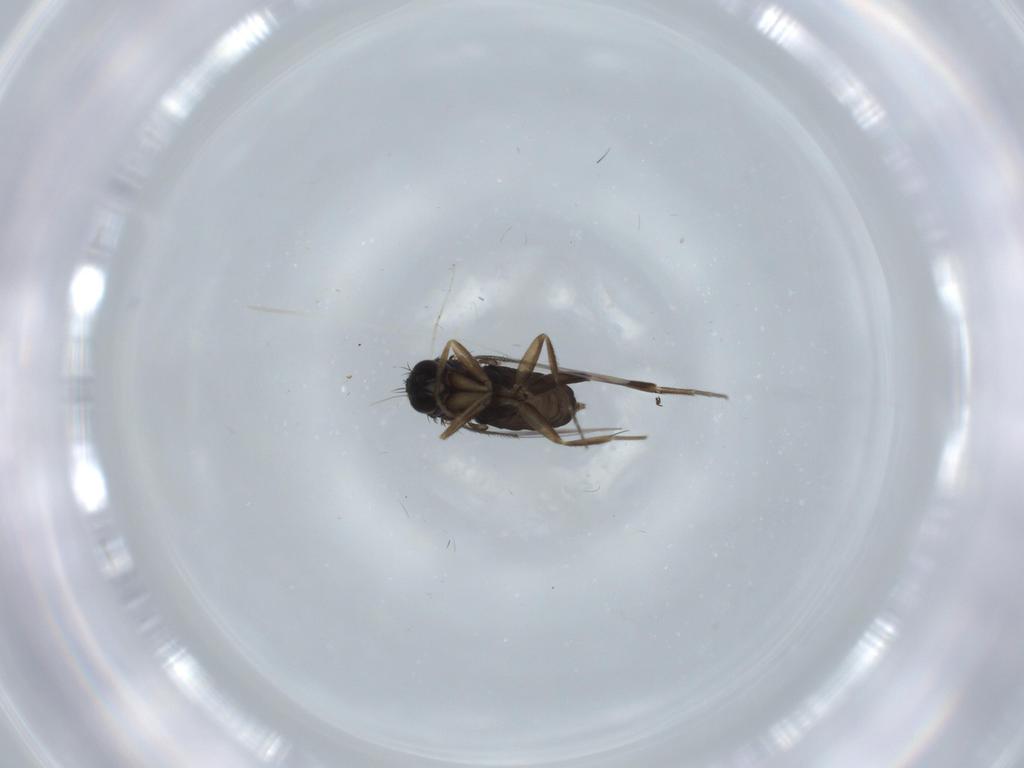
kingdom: Animalia
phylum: Arthropoda
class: Insecta
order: Diptera
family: Phoridae
